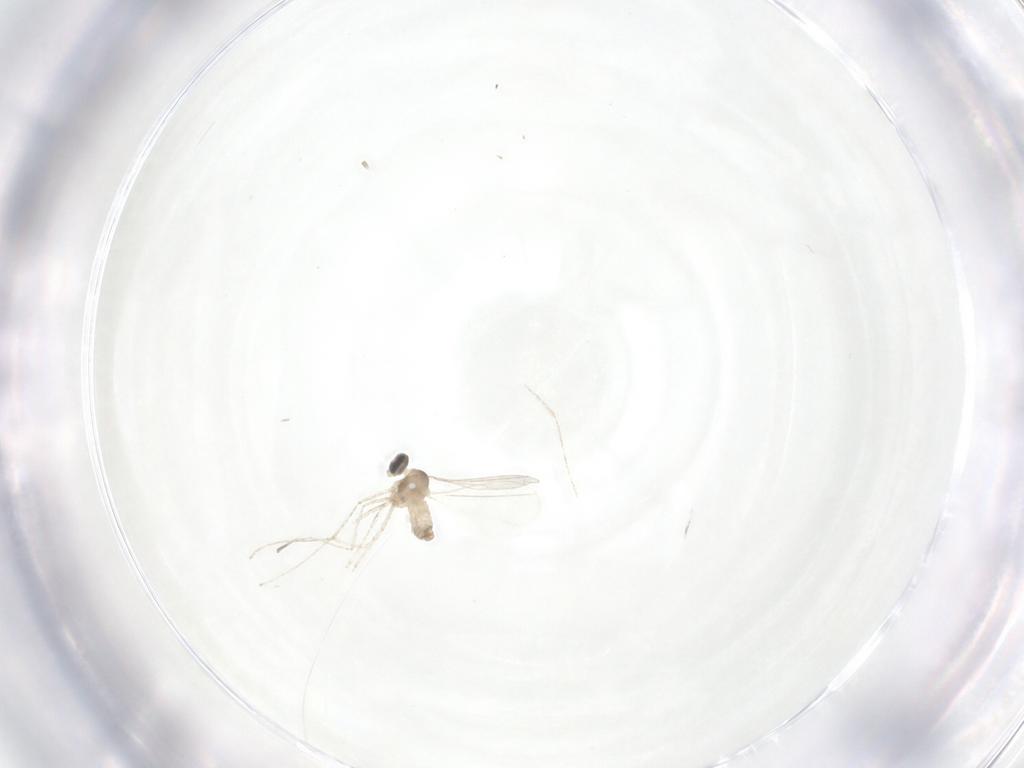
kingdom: Animalia
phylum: Arthropoda
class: Insecta
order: Diptera
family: Cecidomyiidae
